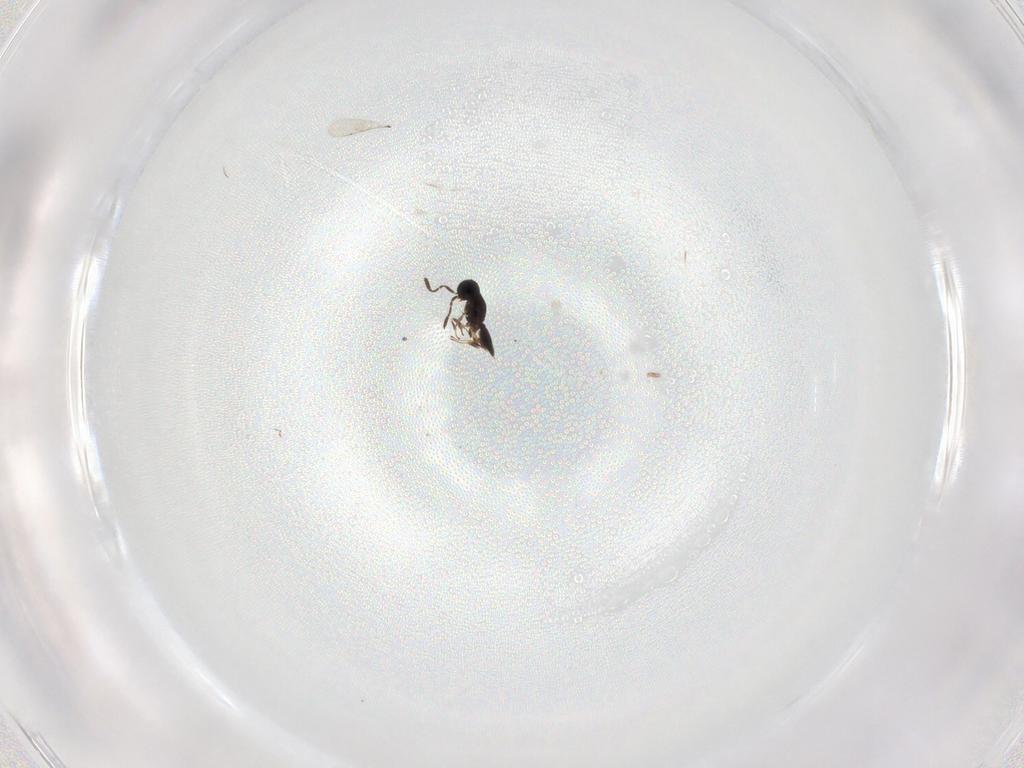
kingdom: Animalia
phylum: Arthropoda
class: Insecta
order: Hymenoptera
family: Scelionidae
